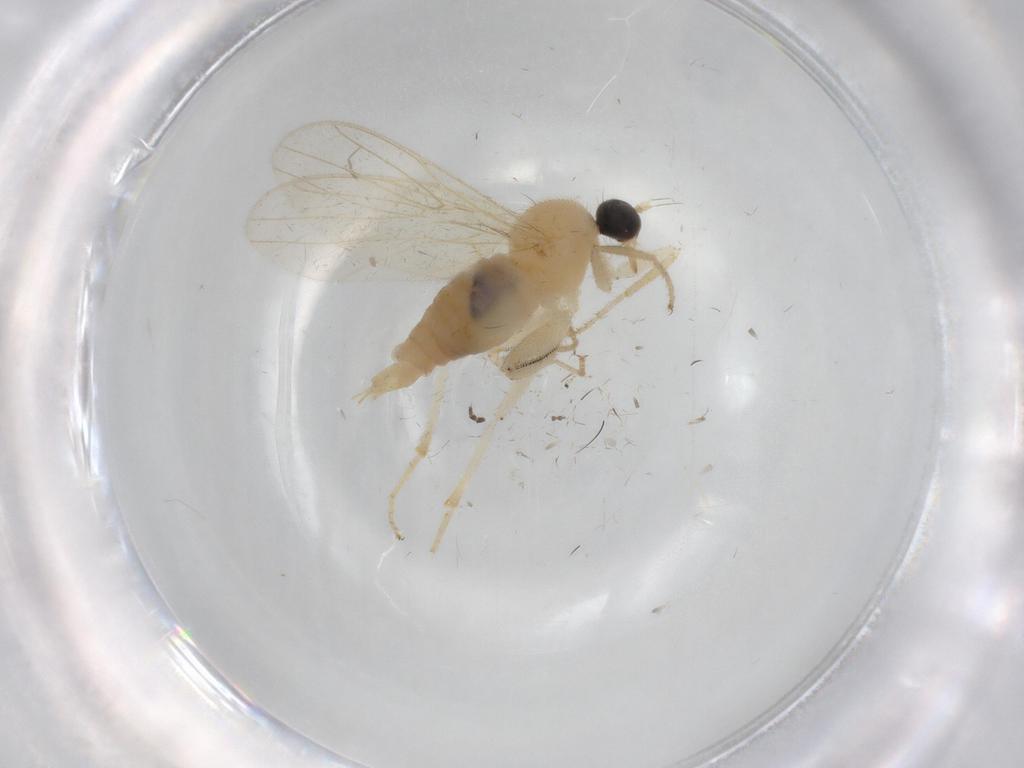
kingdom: Animalia
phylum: Arthropoda
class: Insecta
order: Diptera
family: Hybotidae
